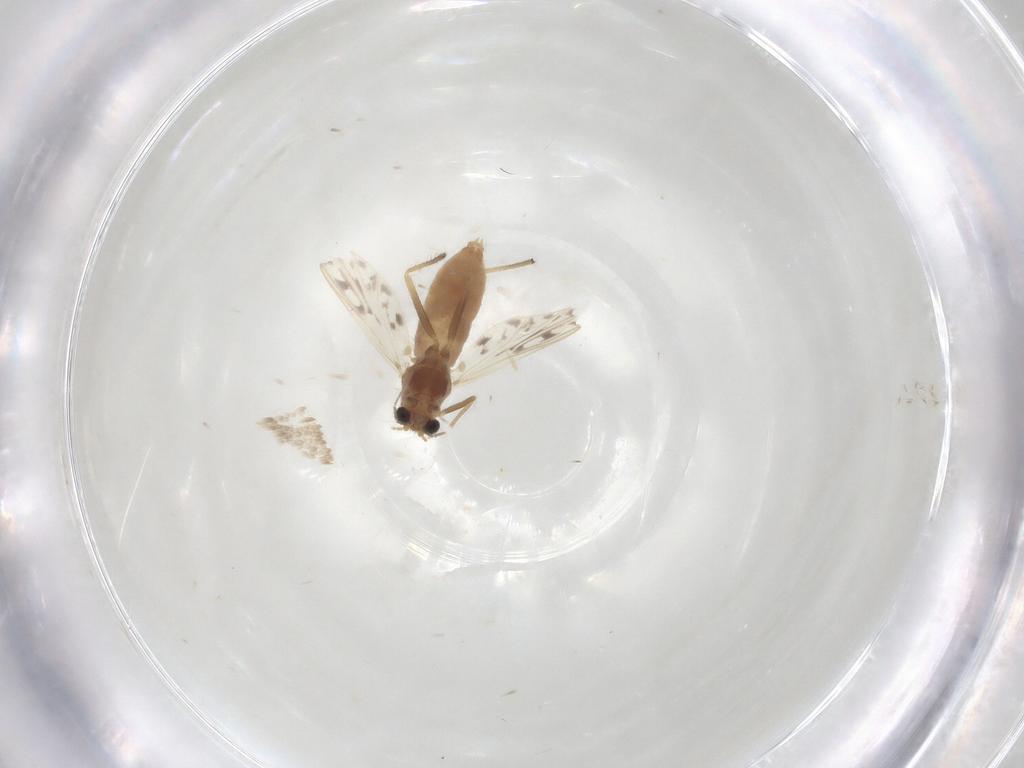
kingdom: Animalia
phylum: Arthropoda
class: Insecta
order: Diptera
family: Chironomidae
